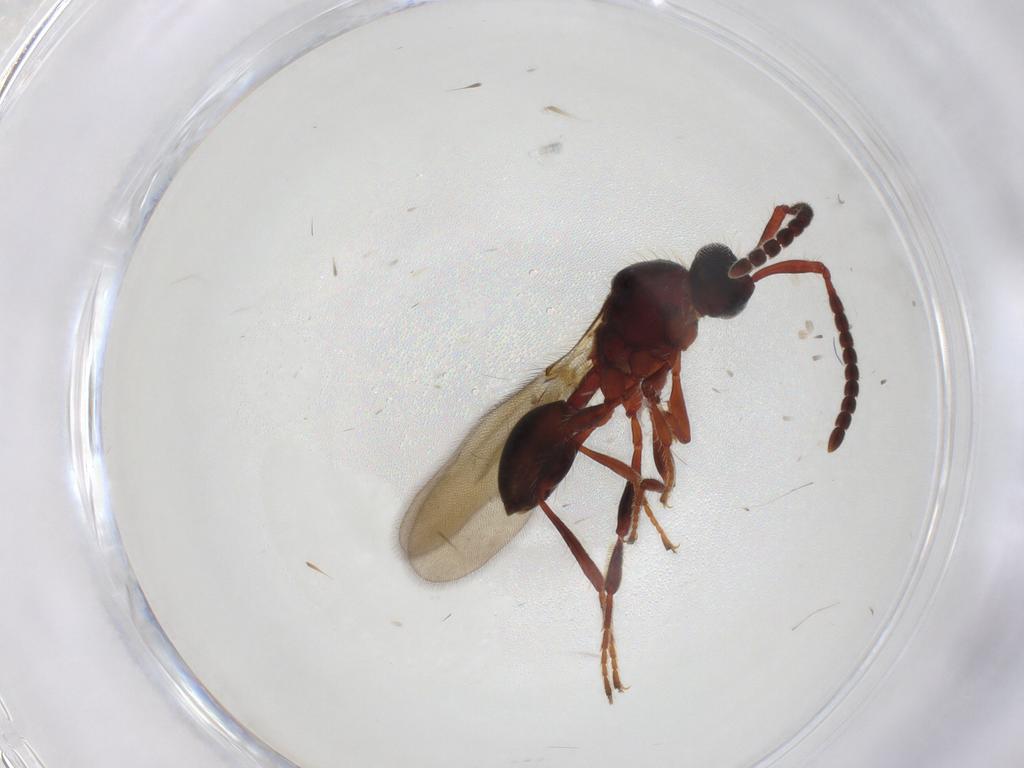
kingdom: Animalia
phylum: Arthropoda
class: Insecta
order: Hymenoptera
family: Diapriidae
